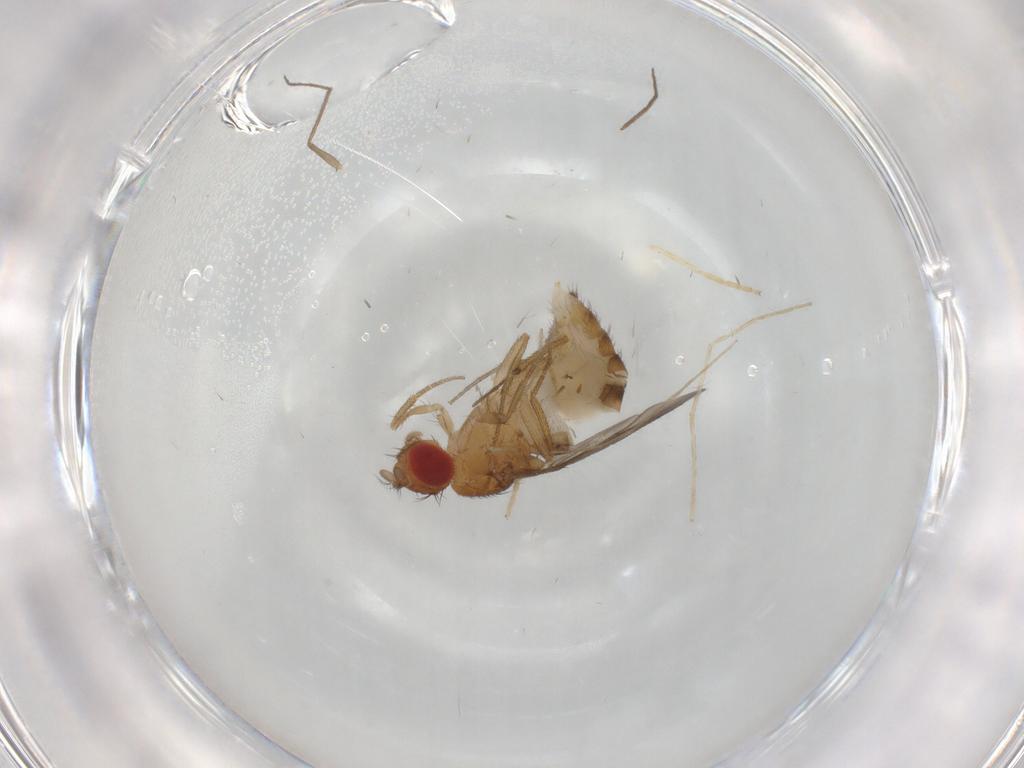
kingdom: Animalia
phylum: Arthropoda
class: Insecta
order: Diptera
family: Drosophilidae
